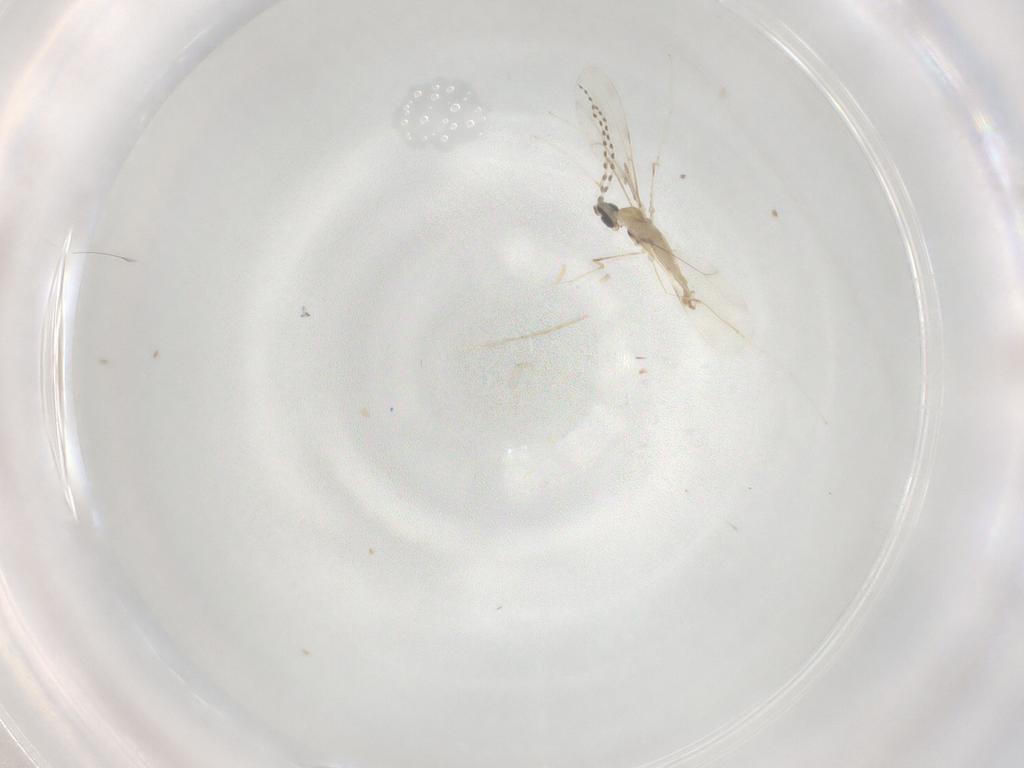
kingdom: Animalia
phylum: Arthropoda
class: Insecta
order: Diptera
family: Cecidomyiidae
